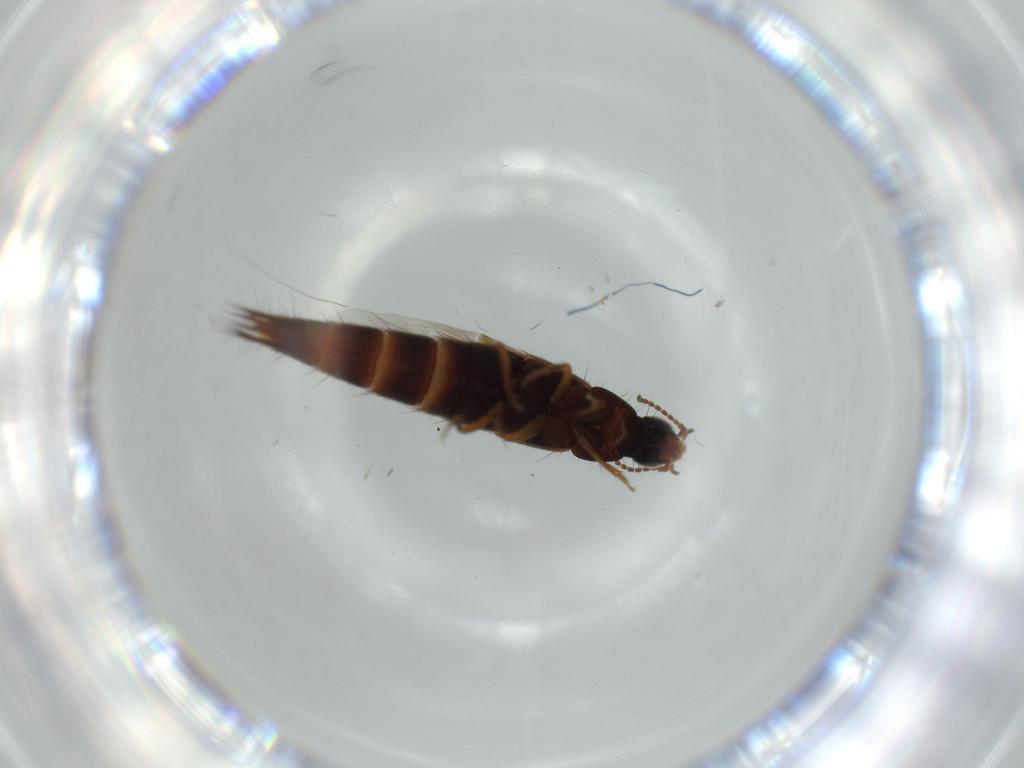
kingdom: Animalia
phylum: Arthropoda
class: Insecta
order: Coleoptera
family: Staphylinidae
